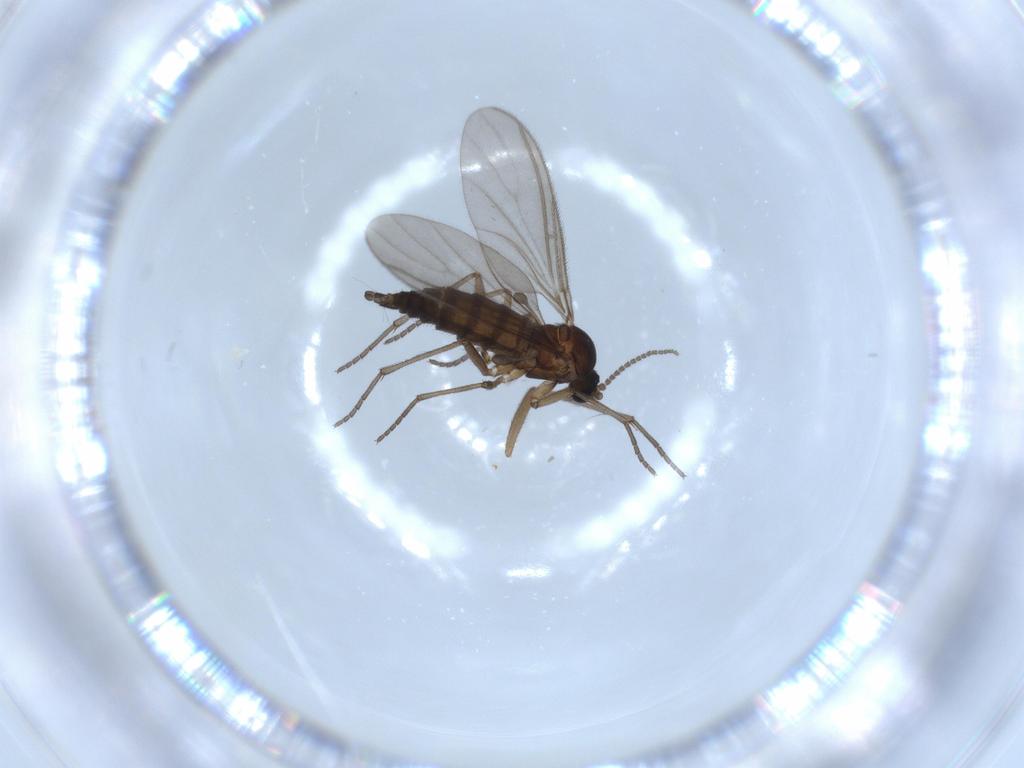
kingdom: Animalia
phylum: Arthropoda
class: Insecta
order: Diptera
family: Sciaridae
